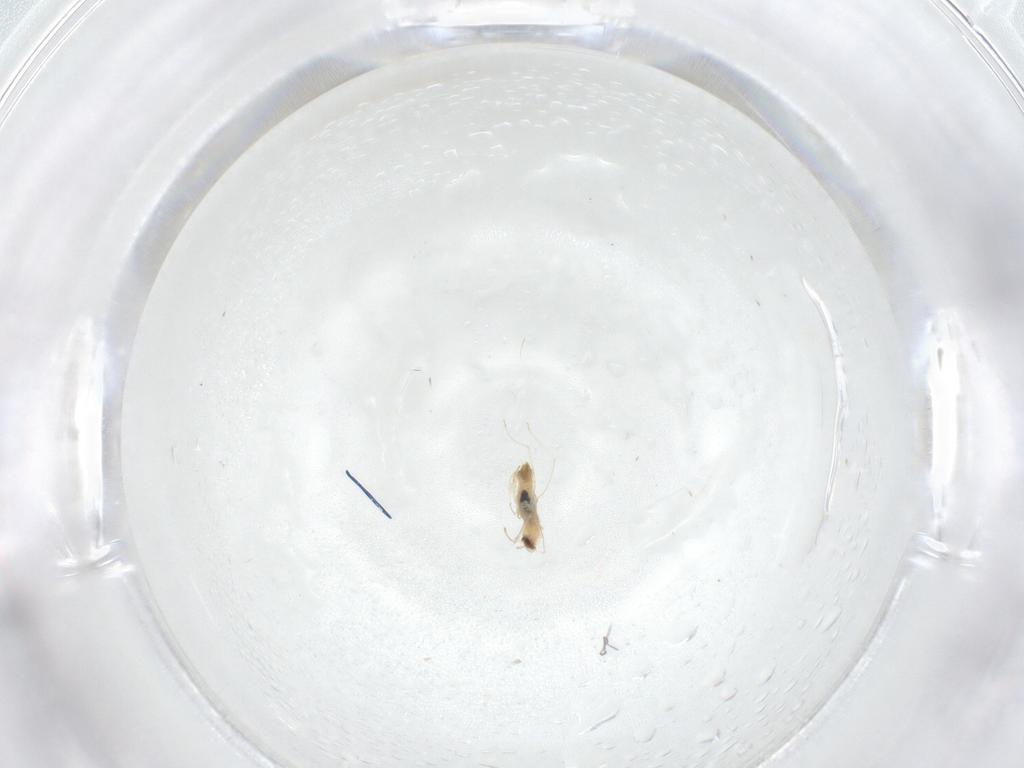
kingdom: Animalia
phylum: Arthropoda
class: Insecta
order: Diptera
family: Cecidomyiidae
